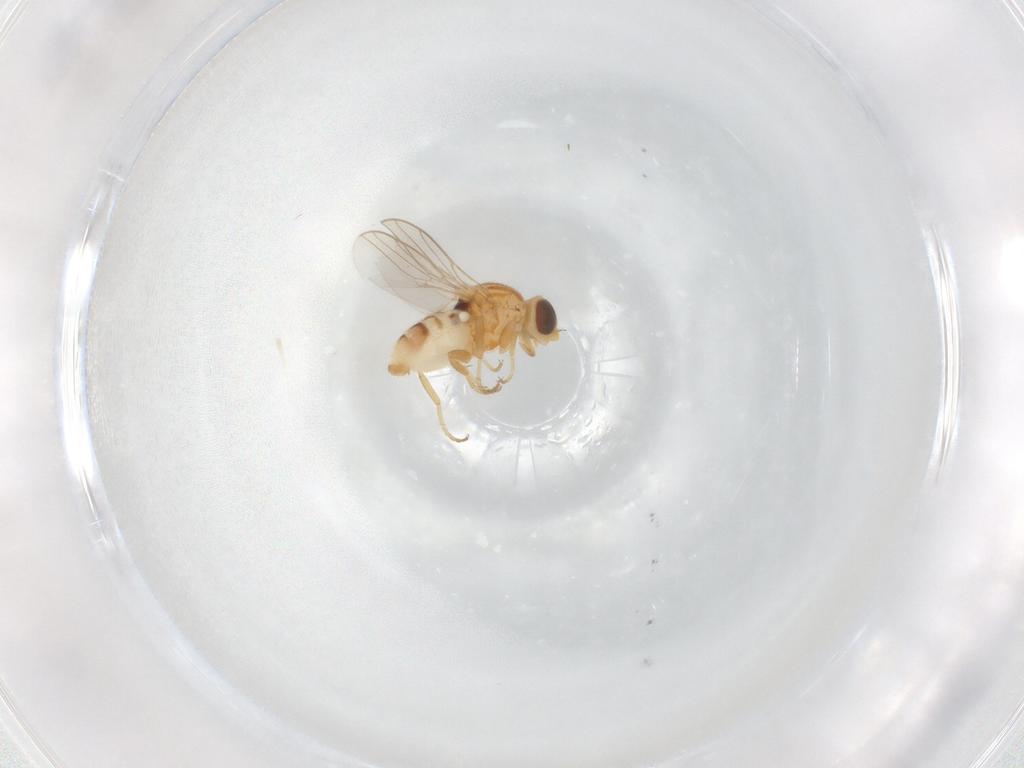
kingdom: Animalia
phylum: Arthropoda
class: Insecta
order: Diptera
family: Chloropidae
